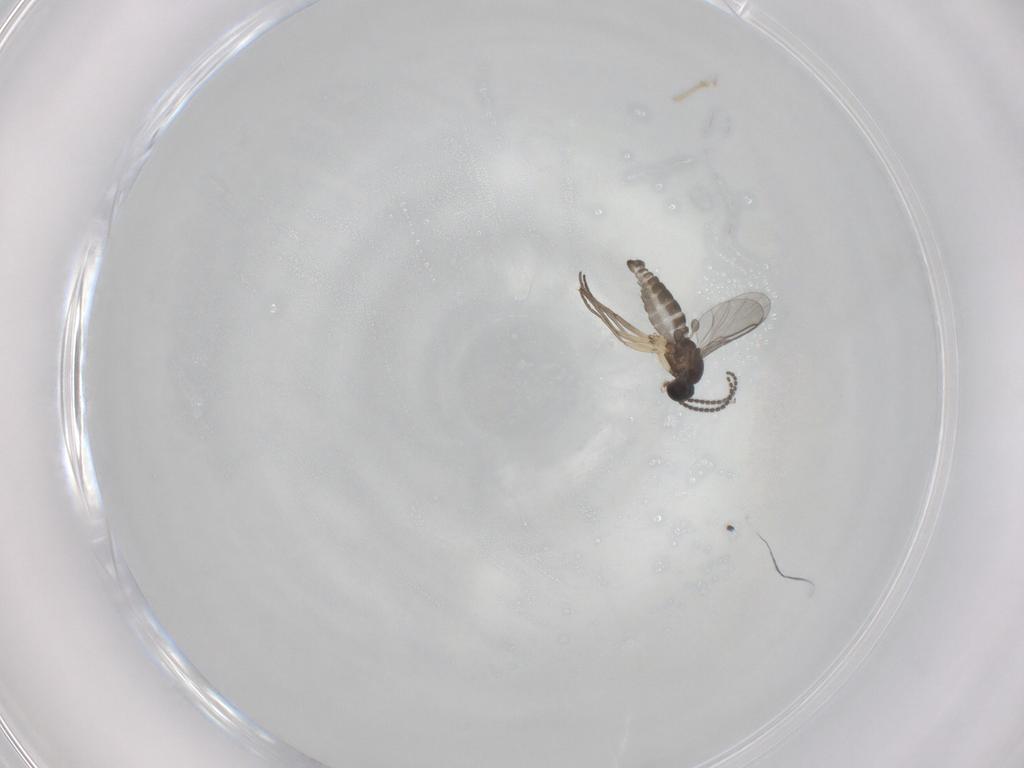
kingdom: Animalia
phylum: Arthropoda
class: Insecta
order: Diptera
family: Sciaridae
